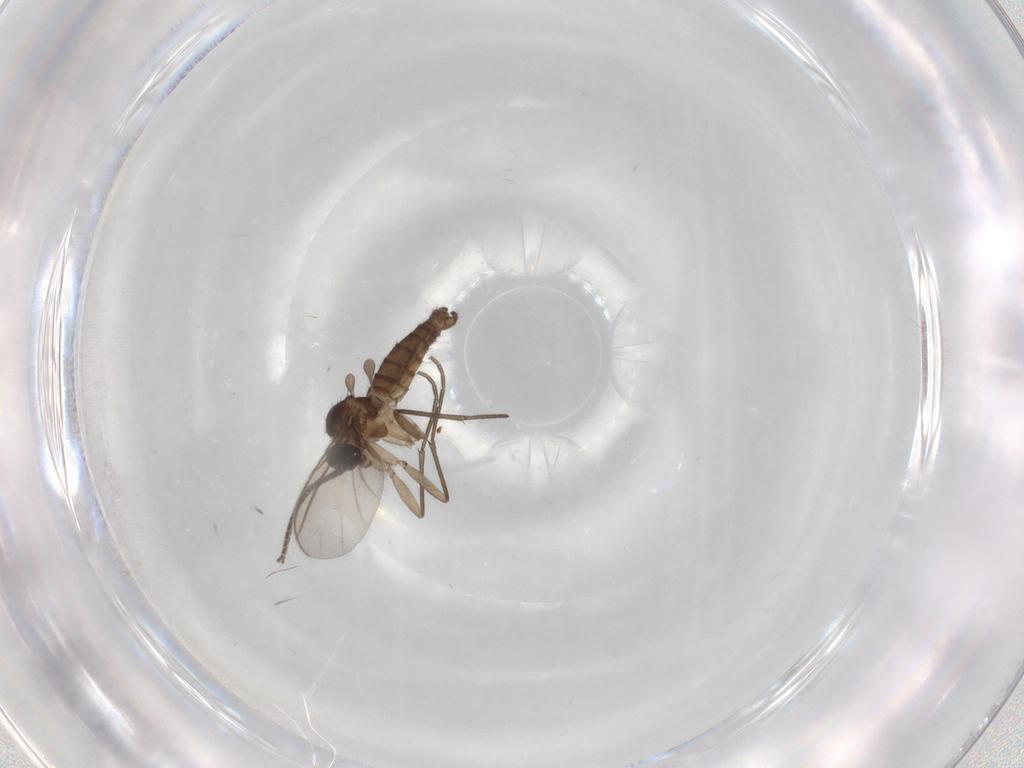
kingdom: Animalia
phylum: Arthropoda
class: Insecta
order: Diptera
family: Sciaridae
